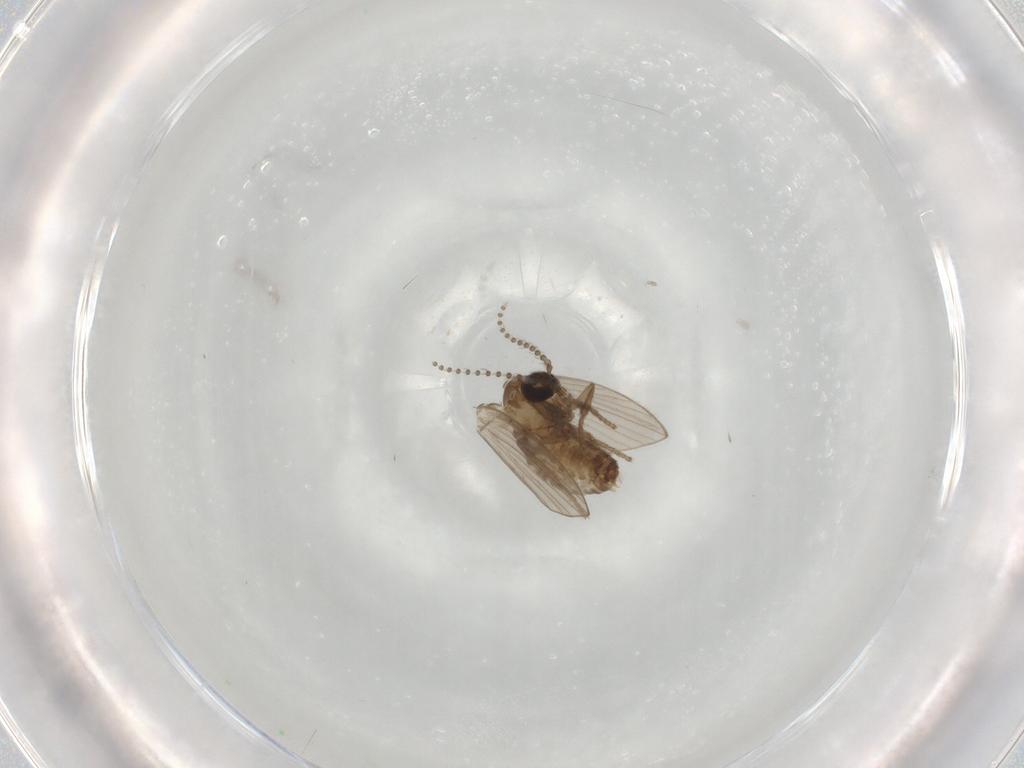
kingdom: Animalia
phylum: Arthropoda
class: Insecta
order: Diptera
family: Psychodidae
